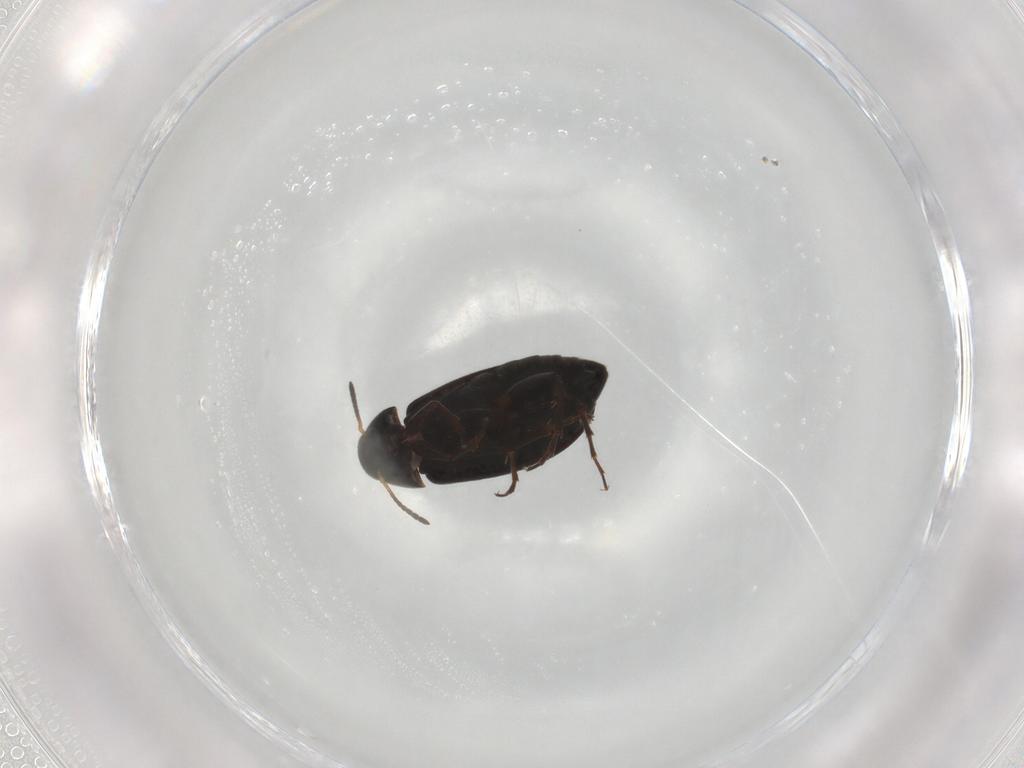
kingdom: Animalia
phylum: Arthropoda
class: Insecta
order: Coleoptera
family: Scraptiidae
